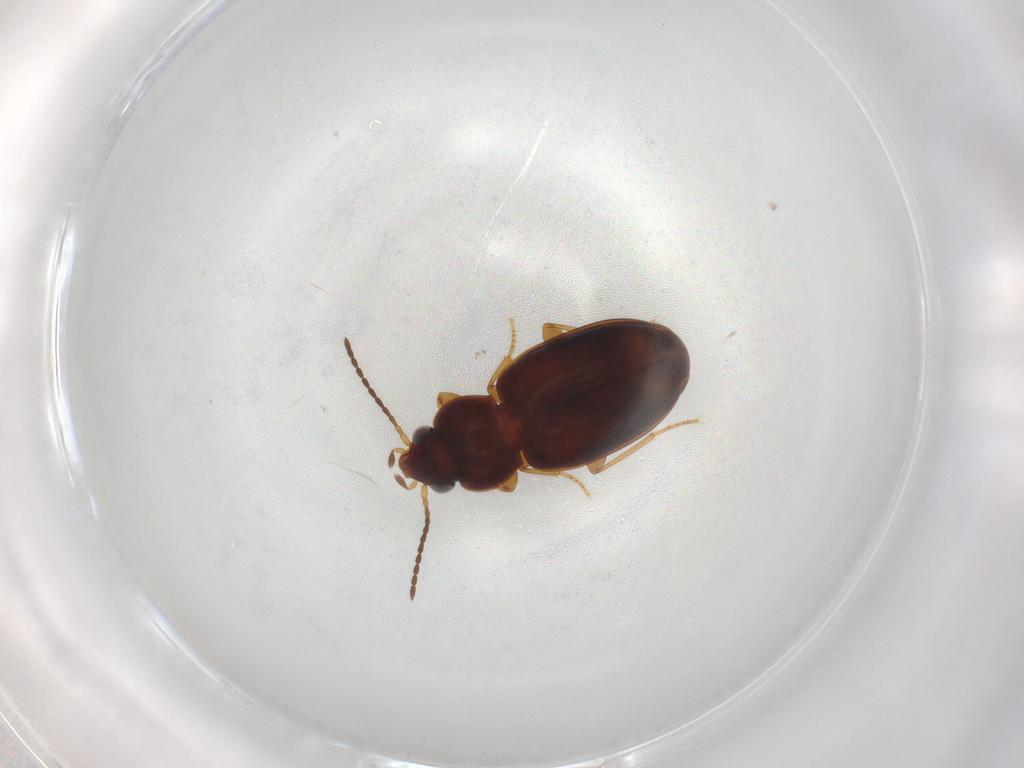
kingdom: Animalia
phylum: Arthropoda
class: Insecta
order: Coleoptera
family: Carabidae
